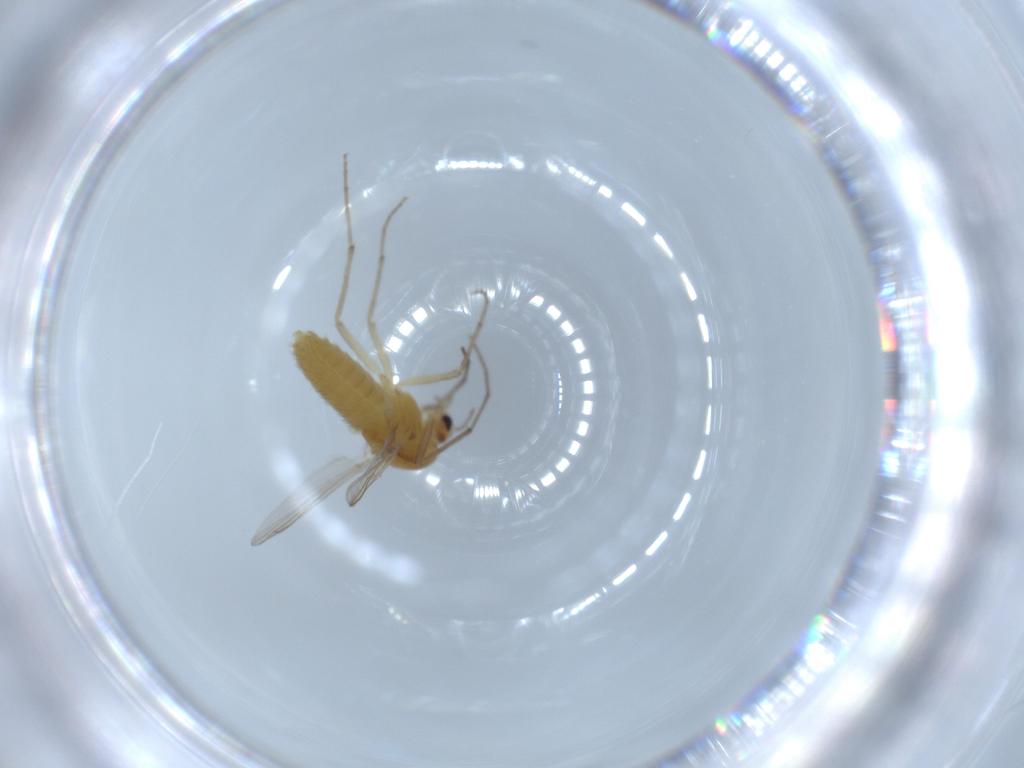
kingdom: Animalia
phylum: Arthropoda
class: Insecta
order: Diptera
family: Chironomidae
